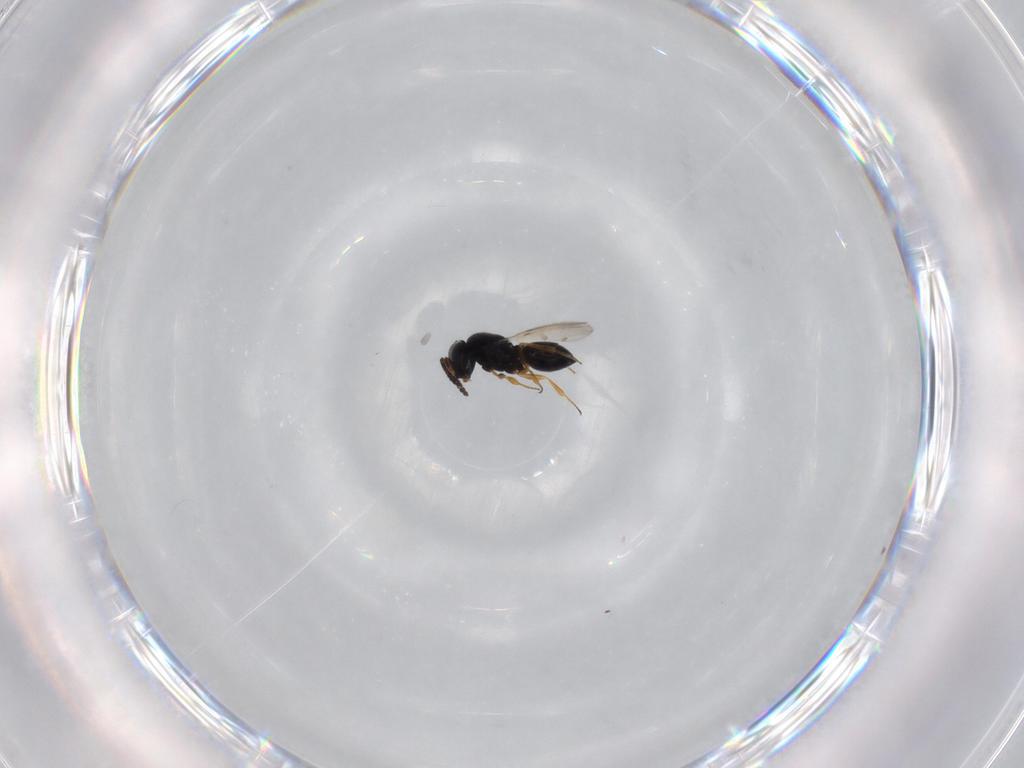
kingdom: Animalia
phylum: Arthropoda
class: Insecta
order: Hymenoptera
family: Scelionidae
